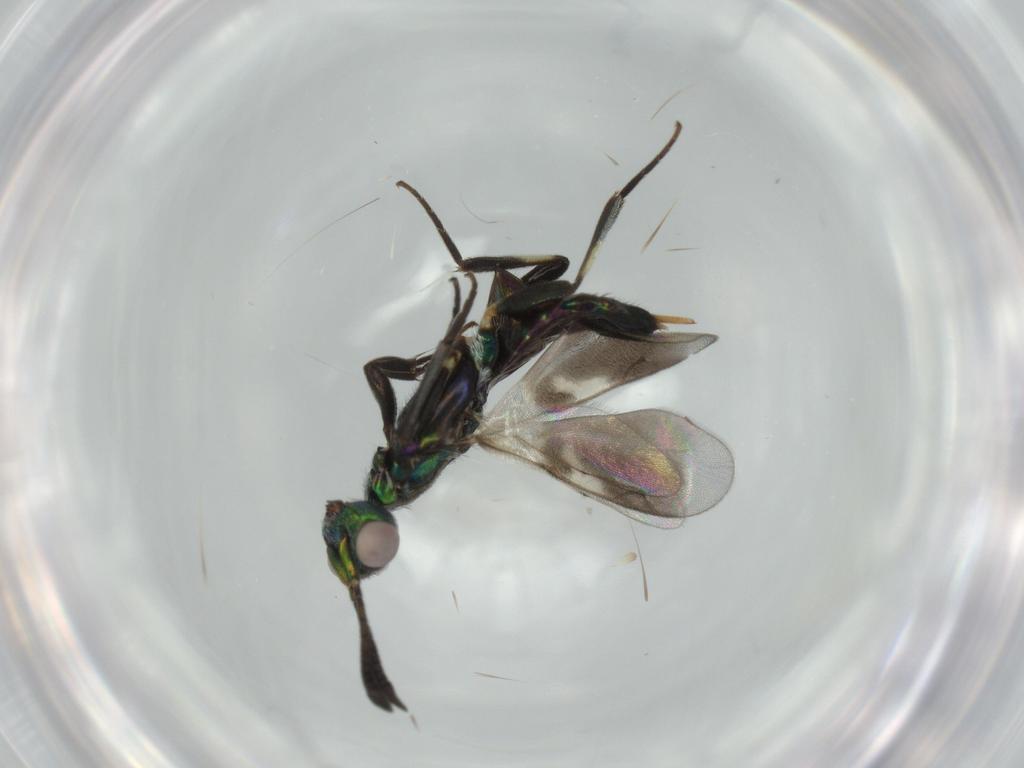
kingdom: Animalia
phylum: Arthropoda
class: Insecta
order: Hymenoptera
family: Eupelmidae
